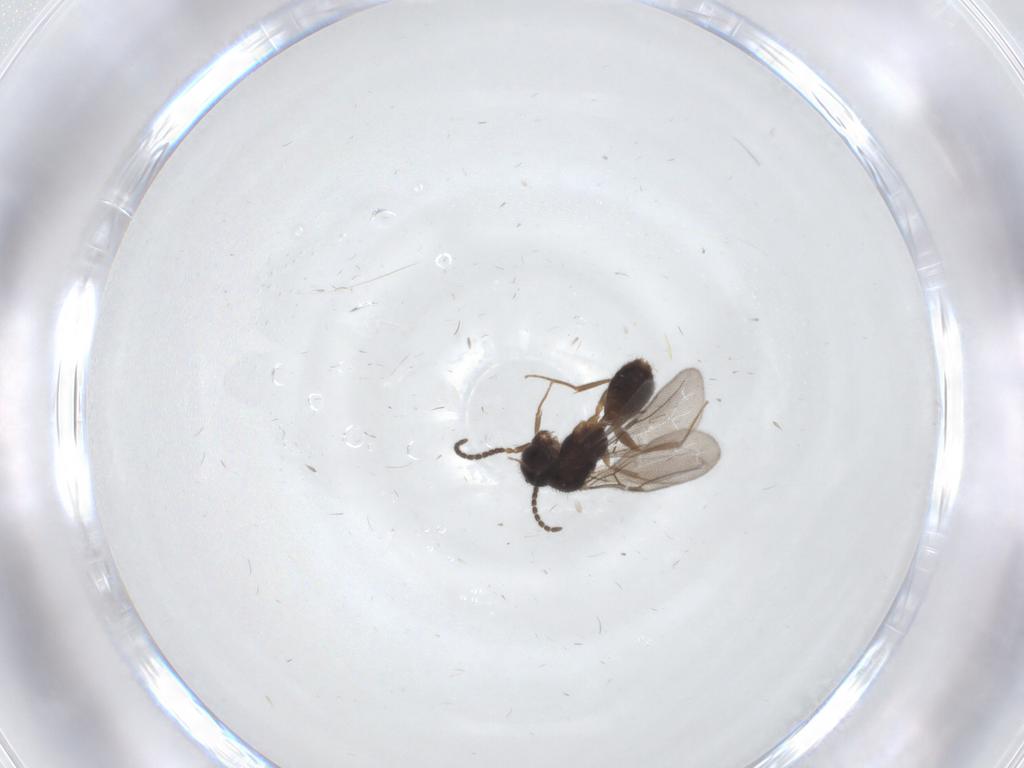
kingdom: Animalia
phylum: Arthropoda
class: Insecta
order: Hymenoptera
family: Bethylidae
